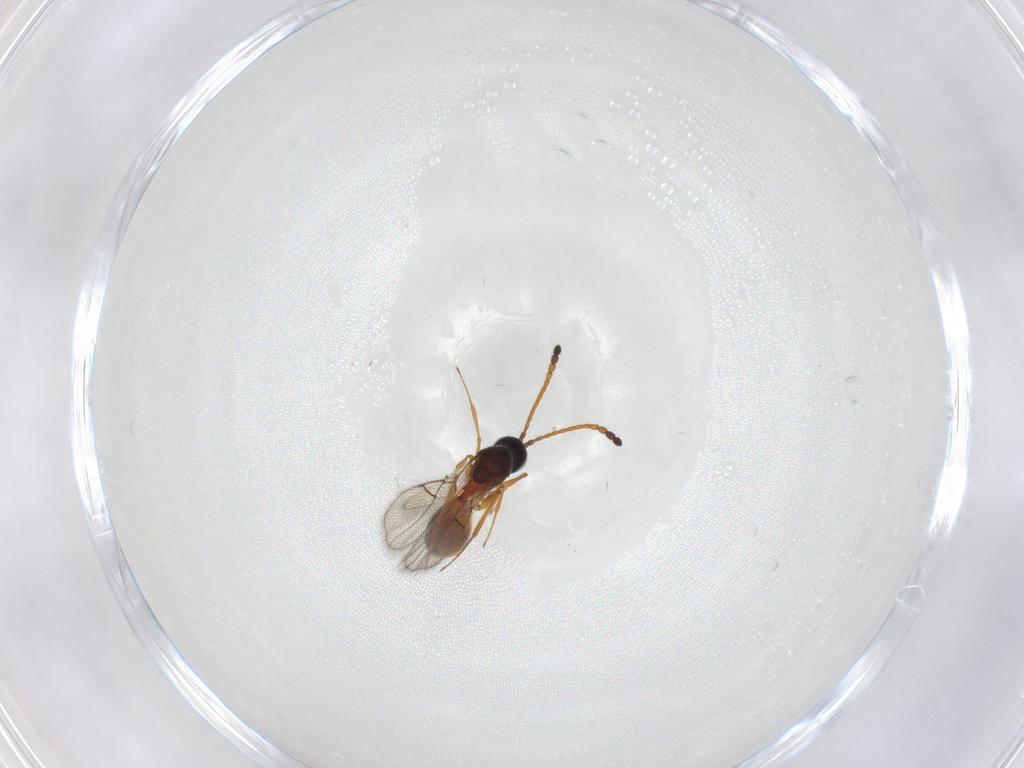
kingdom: Animalia
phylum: Arthropoda
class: Insecta
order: Hymenoptera
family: Figitidae
